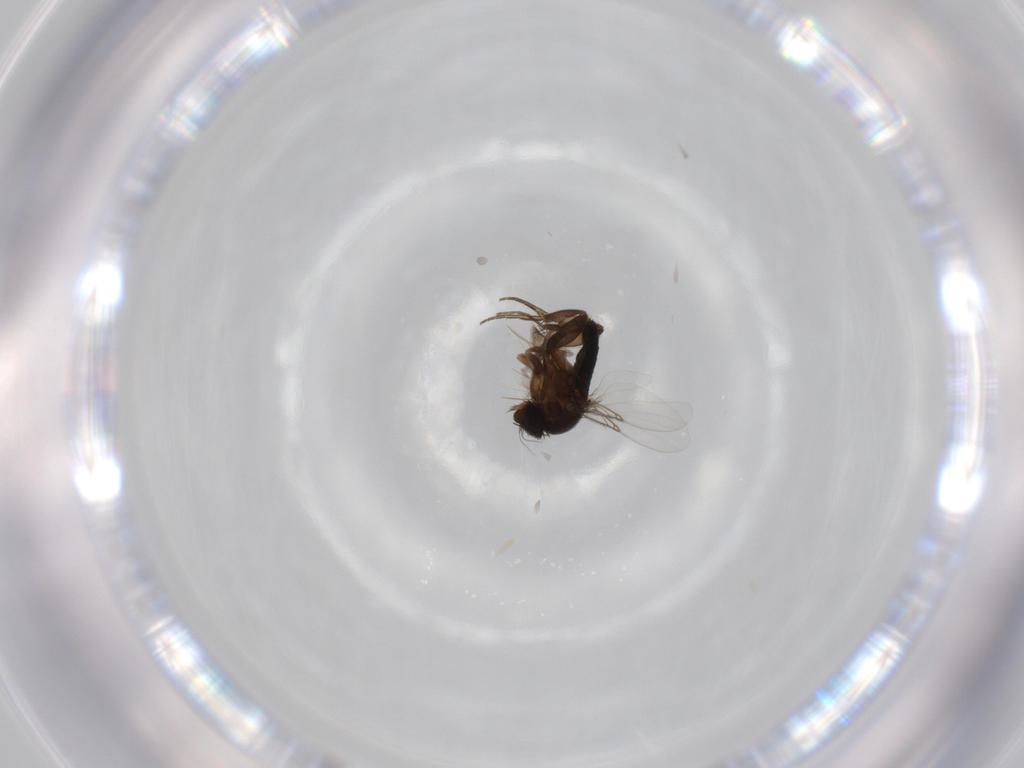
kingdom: Animalia
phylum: Arthropoda
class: Insecta
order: Diptera
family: Phoridae
